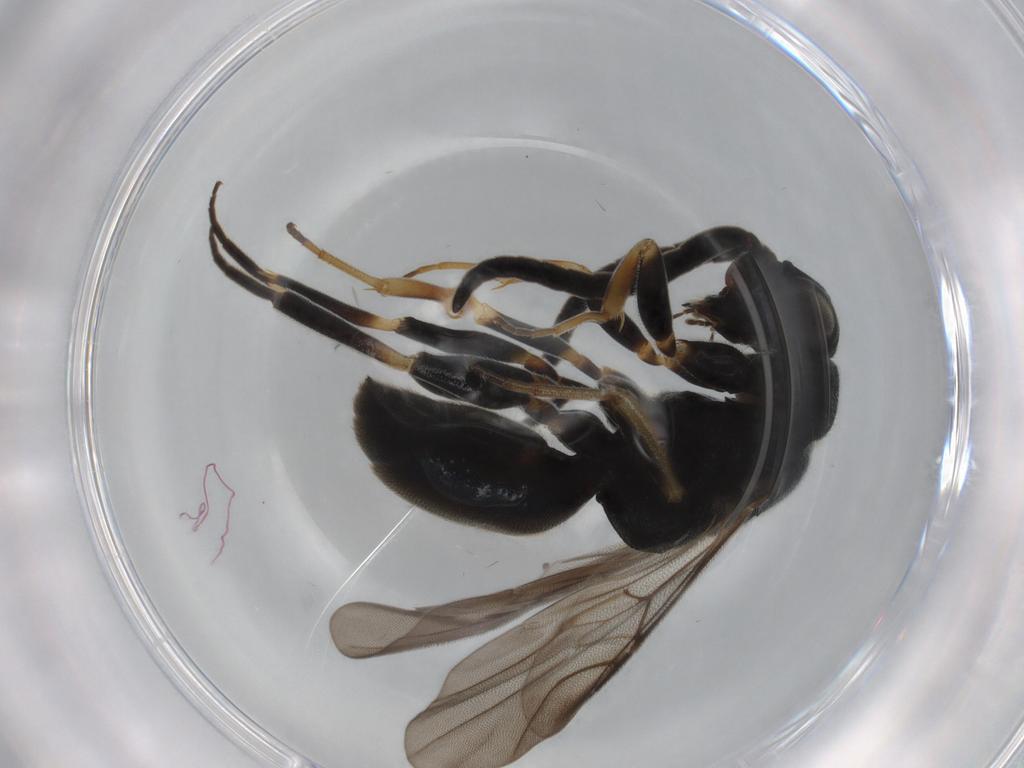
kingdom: Animalia
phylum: Arthropoda
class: Insecta
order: Hymenoptera
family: Chrysididae
